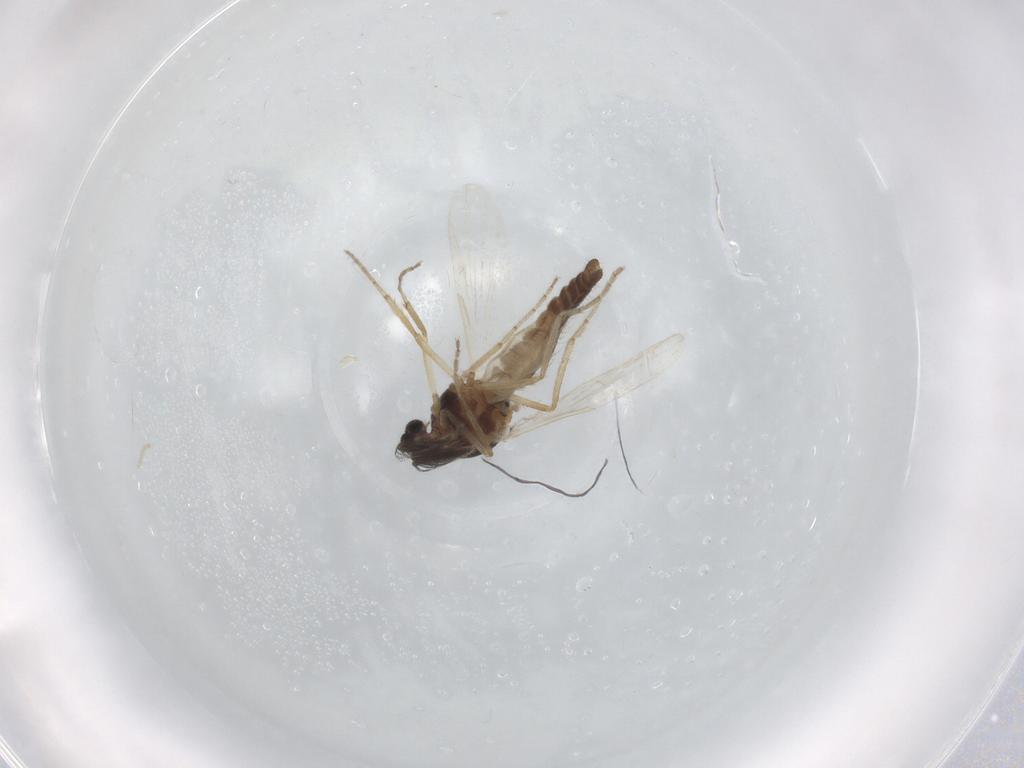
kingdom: Animalia
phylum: Arthropoda
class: Insecta
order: Diptera
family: Ceratopogonidae
